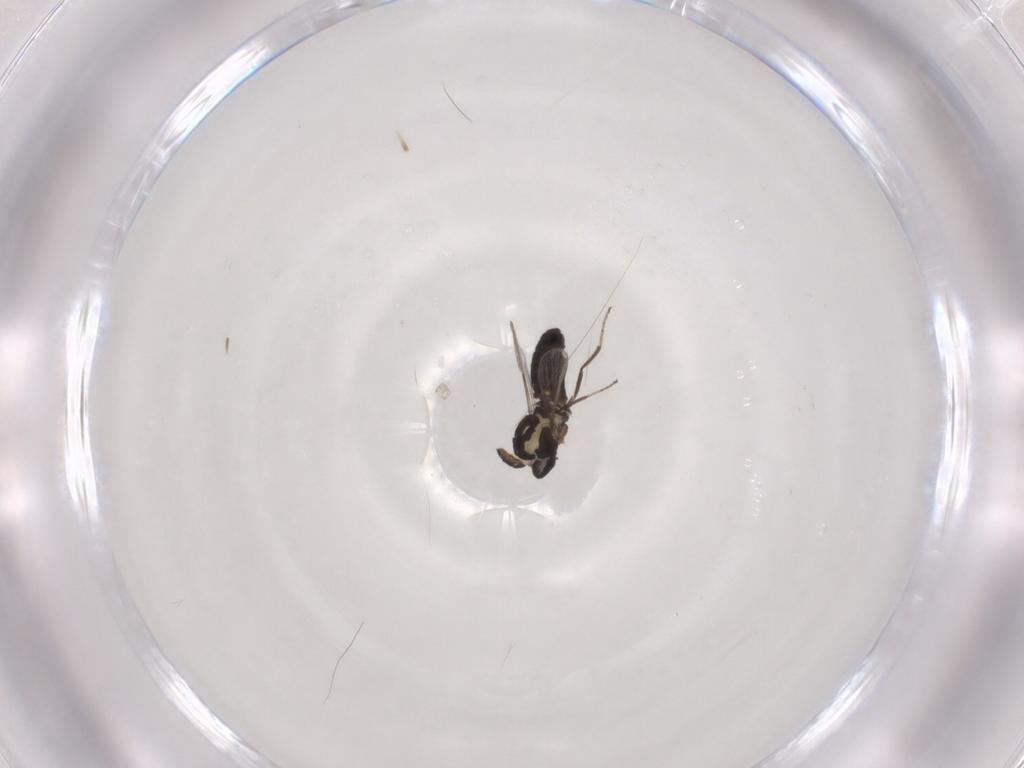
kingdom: Animalia
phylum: Arthropoda
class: Insecta
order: Diptera
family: Ceratopogonidae
